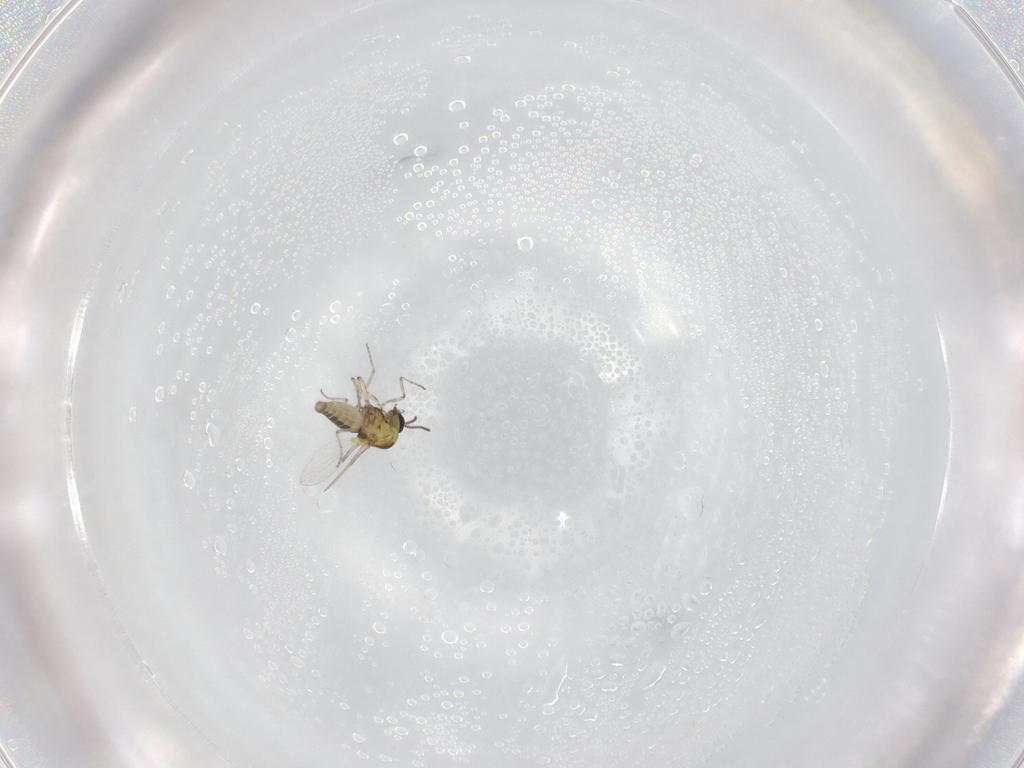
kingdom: Animalia
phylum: Arthropoda
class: Insecta
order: Diptera
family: Ceratopogonidae
